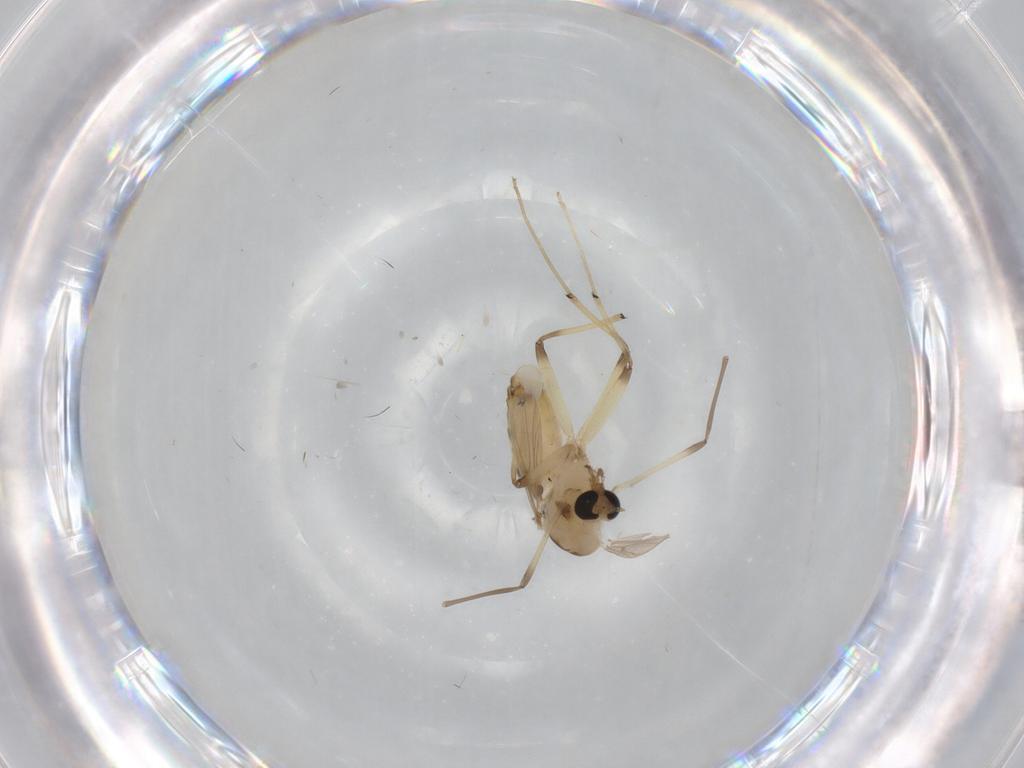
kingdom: Animalia
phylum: Arthropoda
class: Insecta
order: Diptera
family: Chironomidae
